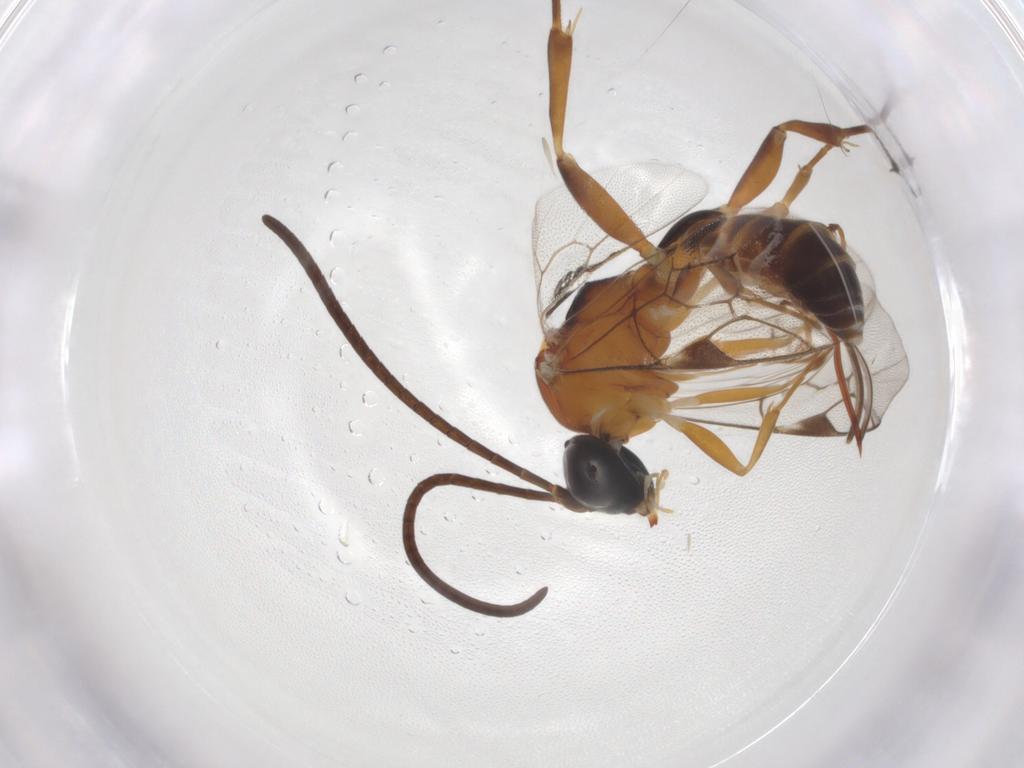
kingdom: Animalia
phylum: Arthropoda
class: Insecta
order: Hymenoptera
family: Ichneumonidae
